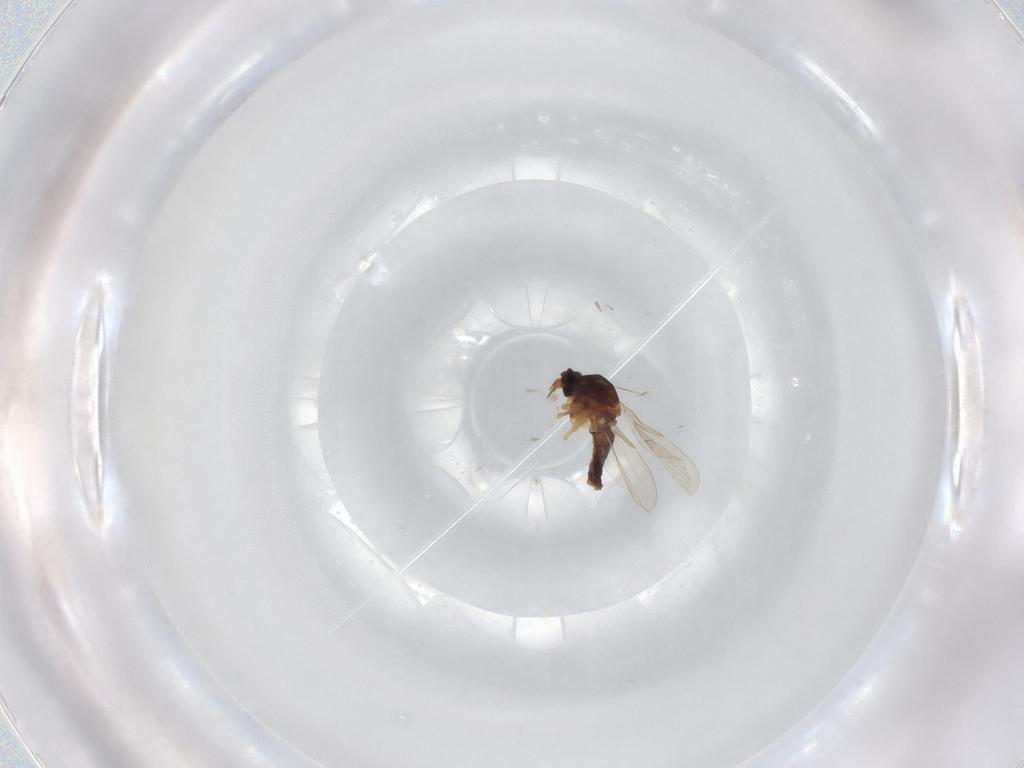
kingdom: Animalia
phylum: Arthropoda
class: Insecta
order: Diptera
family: Ceratopogonidae
